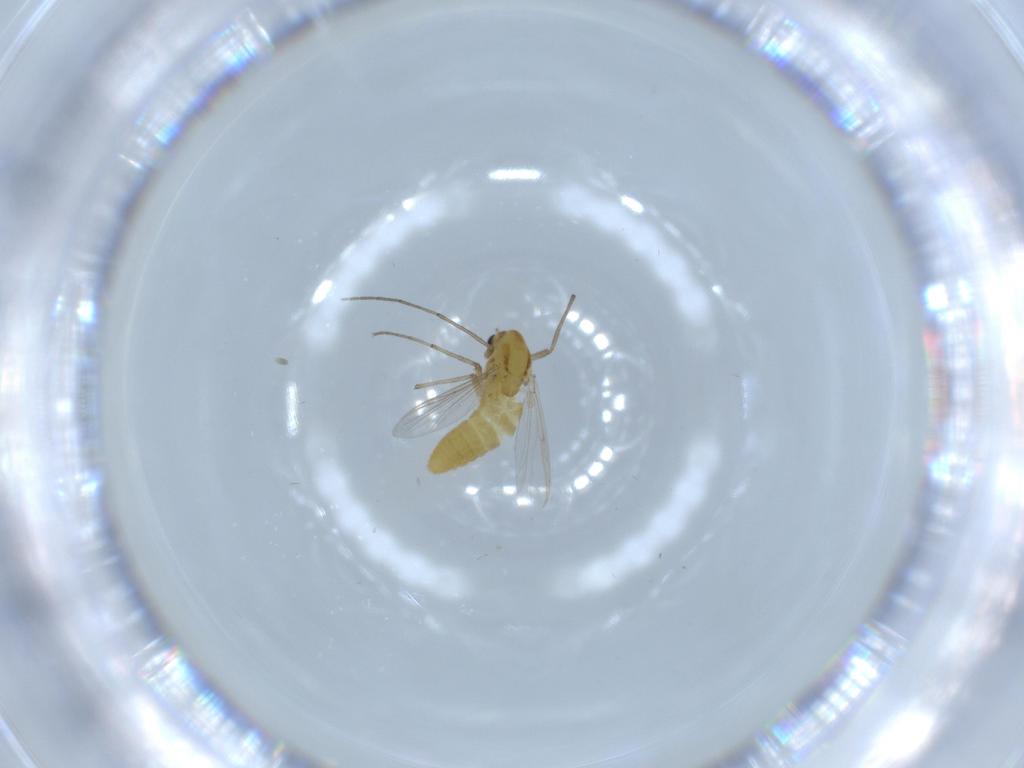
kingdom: Animalia
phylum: Arthropoda
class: Insecta
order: Diptera
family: Chironomidae
